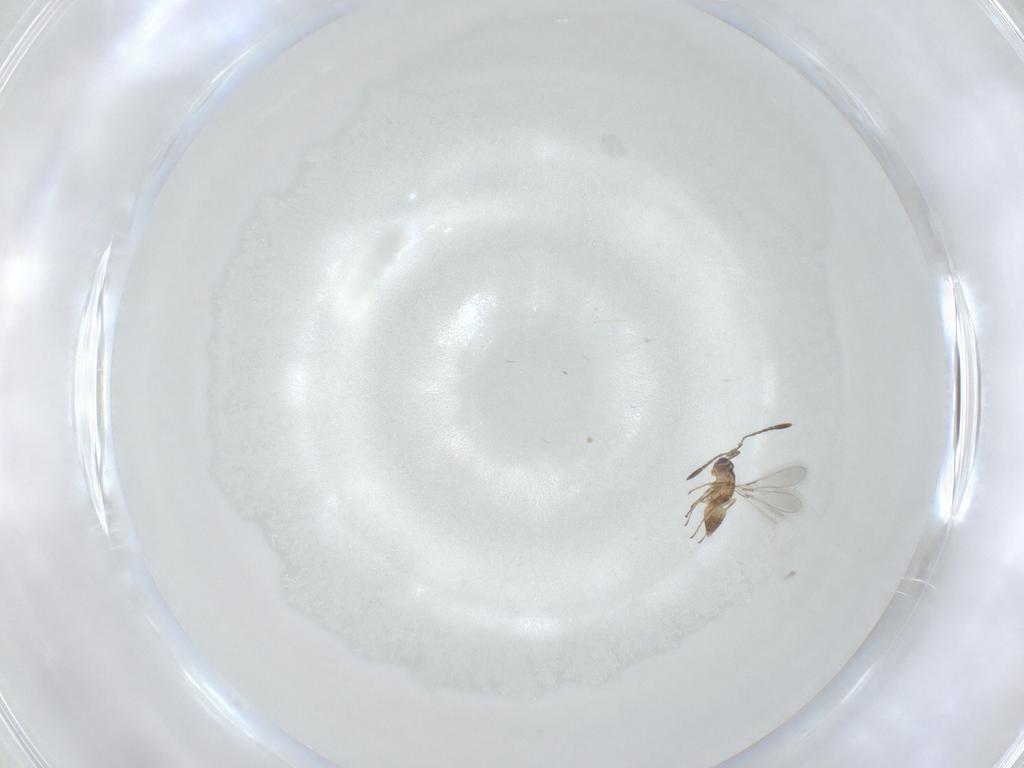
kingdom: Animalia
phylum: Arthropoda
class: Insecta
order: Hymenoptera
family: Mymaridae
